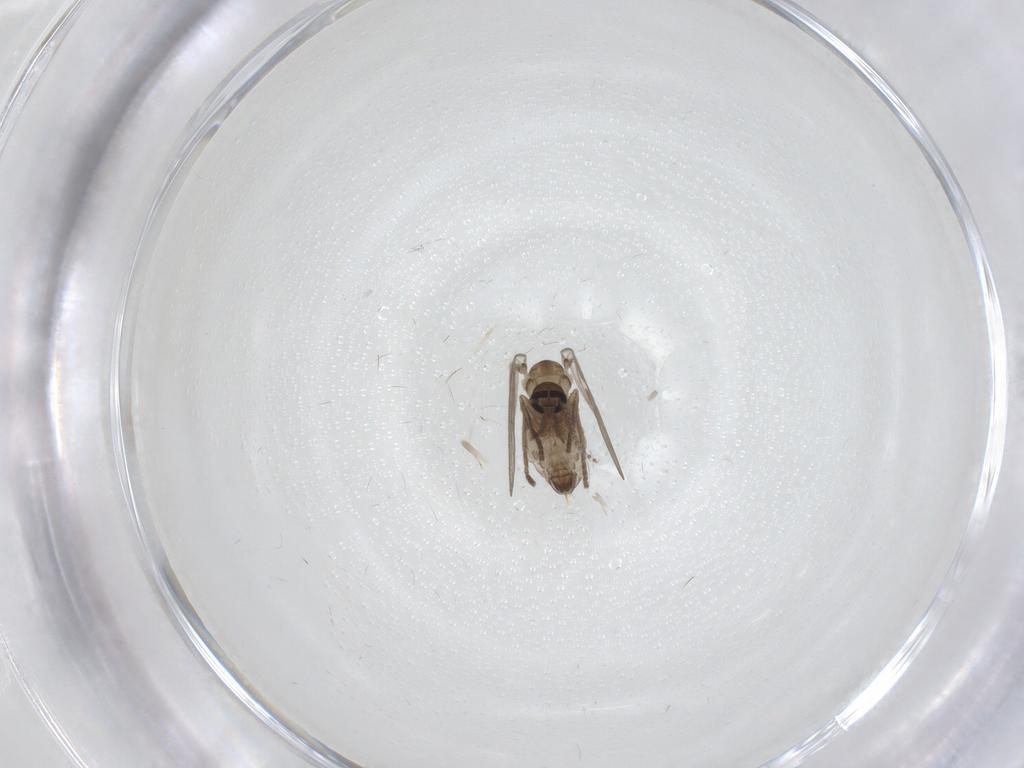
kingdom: Animalia
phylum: Arthropoda
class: Insecta
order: Diptera
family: Psychodidae
